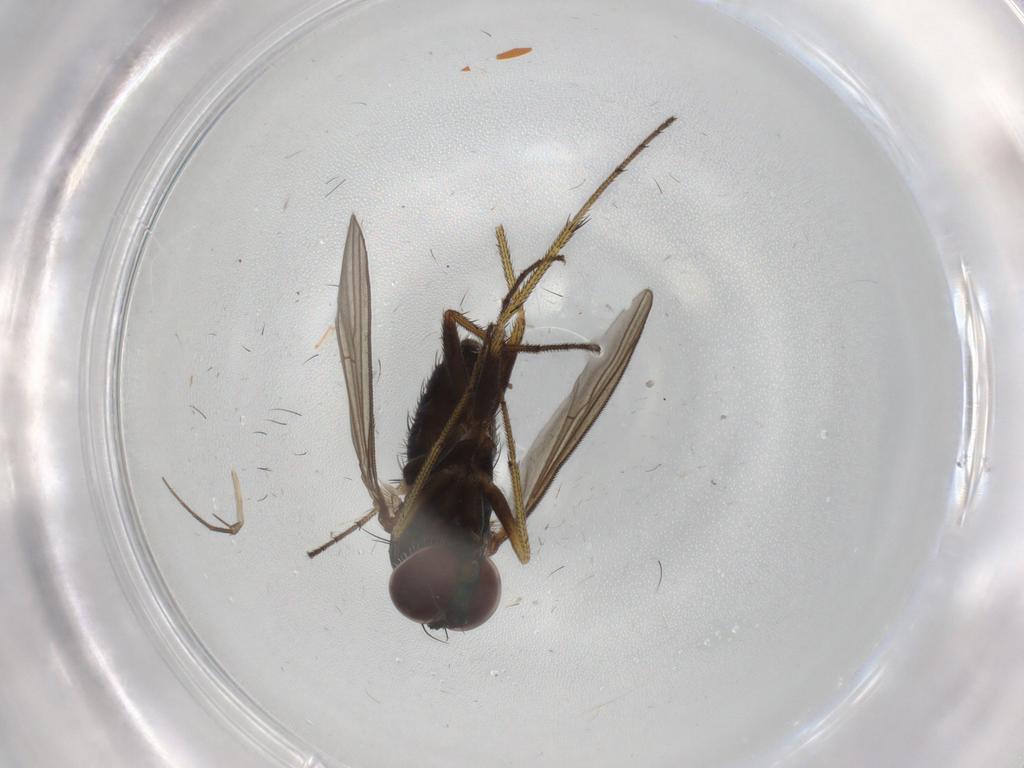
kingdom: Animalia
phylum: Arthropoda
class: Insecta
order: Diptera
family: Dolichopodidae
